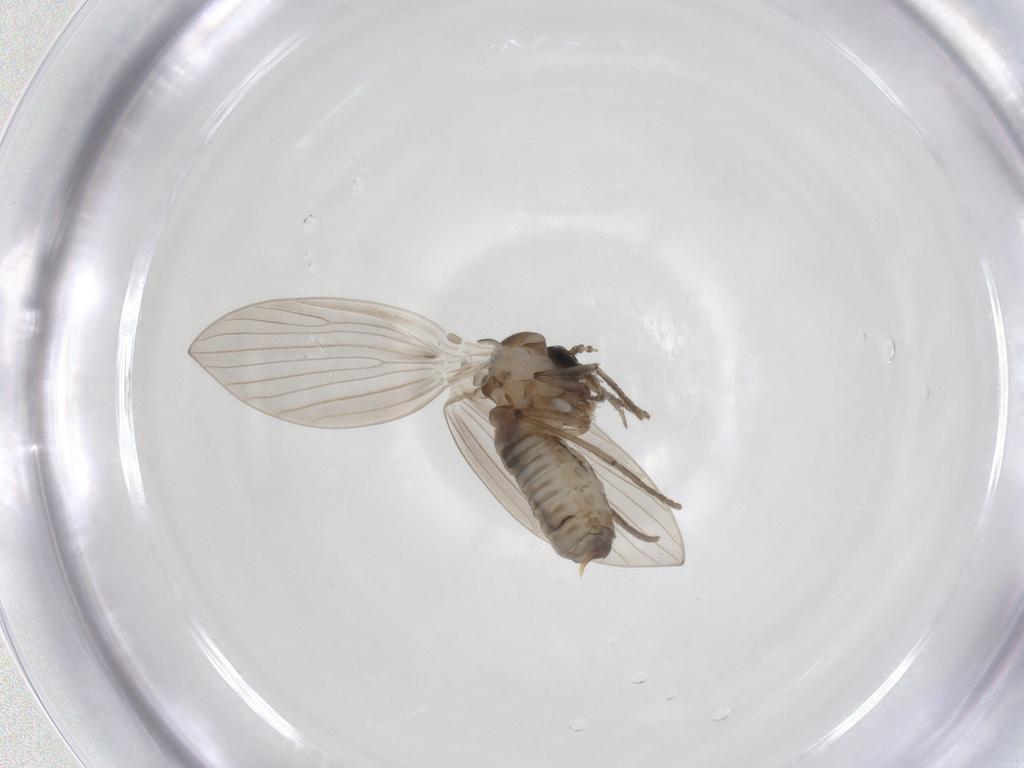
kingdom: Animalia
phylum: Arthropoda
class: Insecta
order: Diptera
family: Psychodidae
